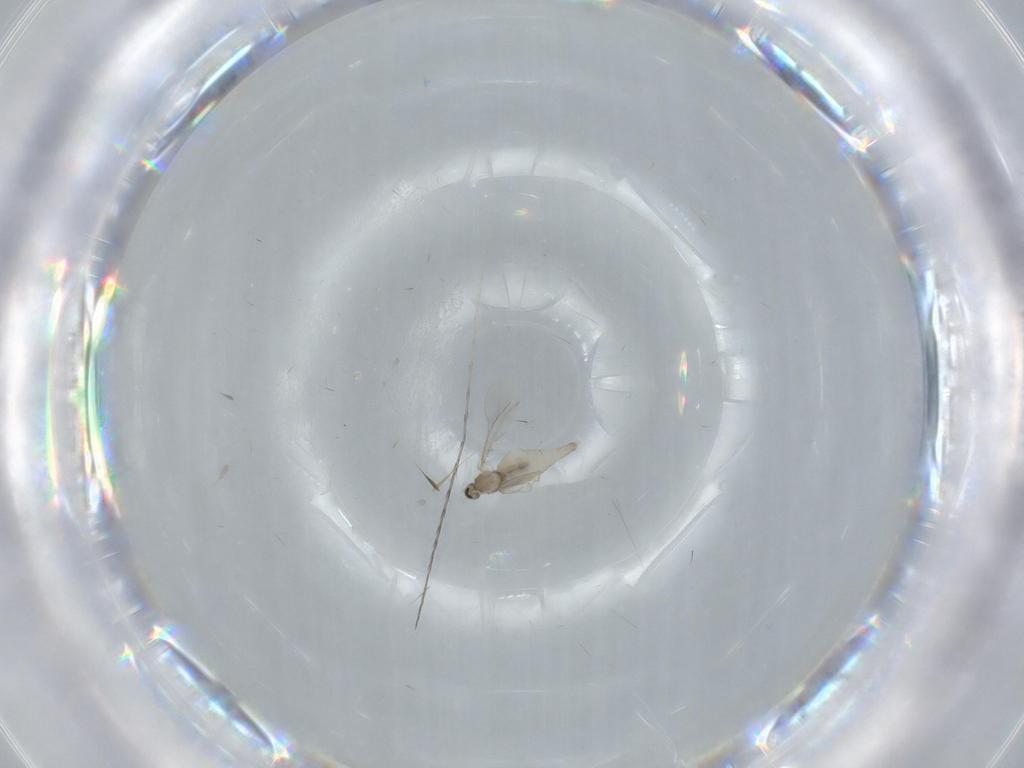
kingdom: Animalia
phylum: Arthropoda
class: Insecta
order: Diptera
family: Cecidomyiidae
